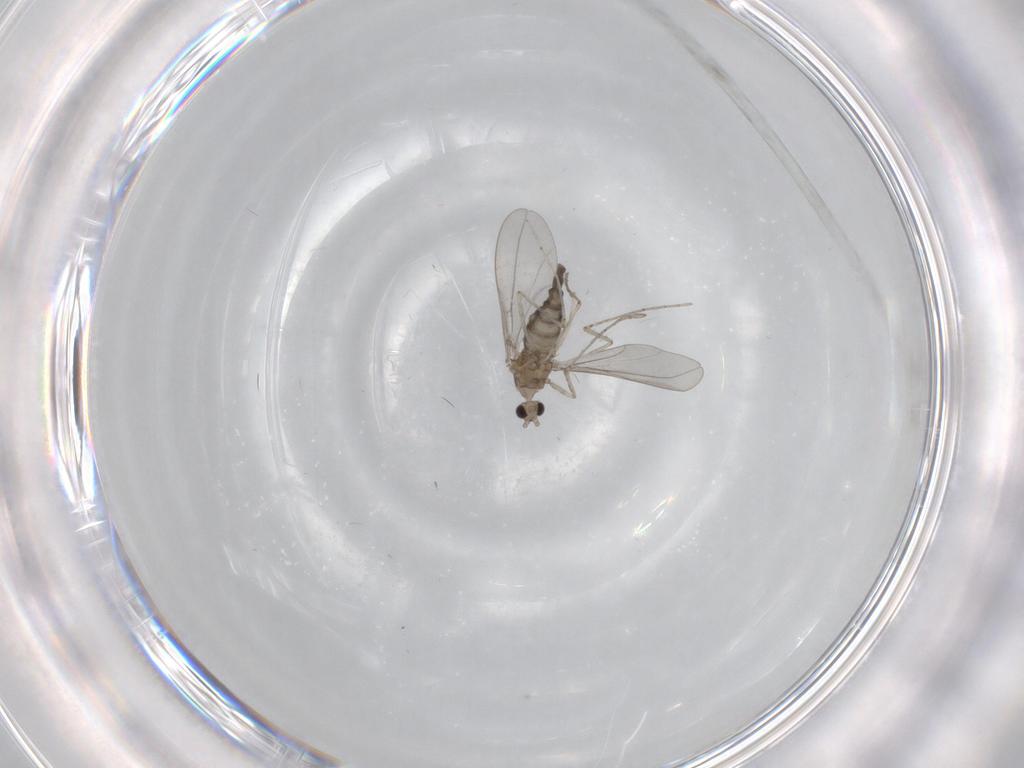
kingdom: Animalia
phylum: Arthropoda
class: Insecta
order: Diptera
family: Chironomidae
